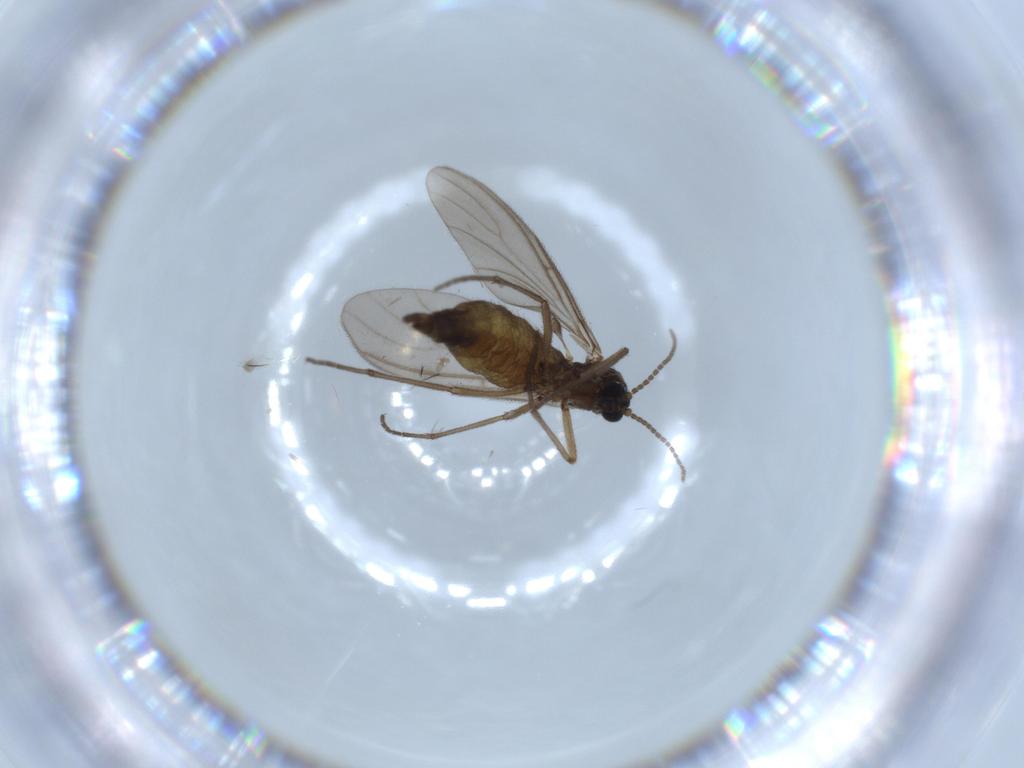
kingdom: Animalia
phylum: Arthropoda
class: Insecta
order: Diptera
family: Sciaridae
